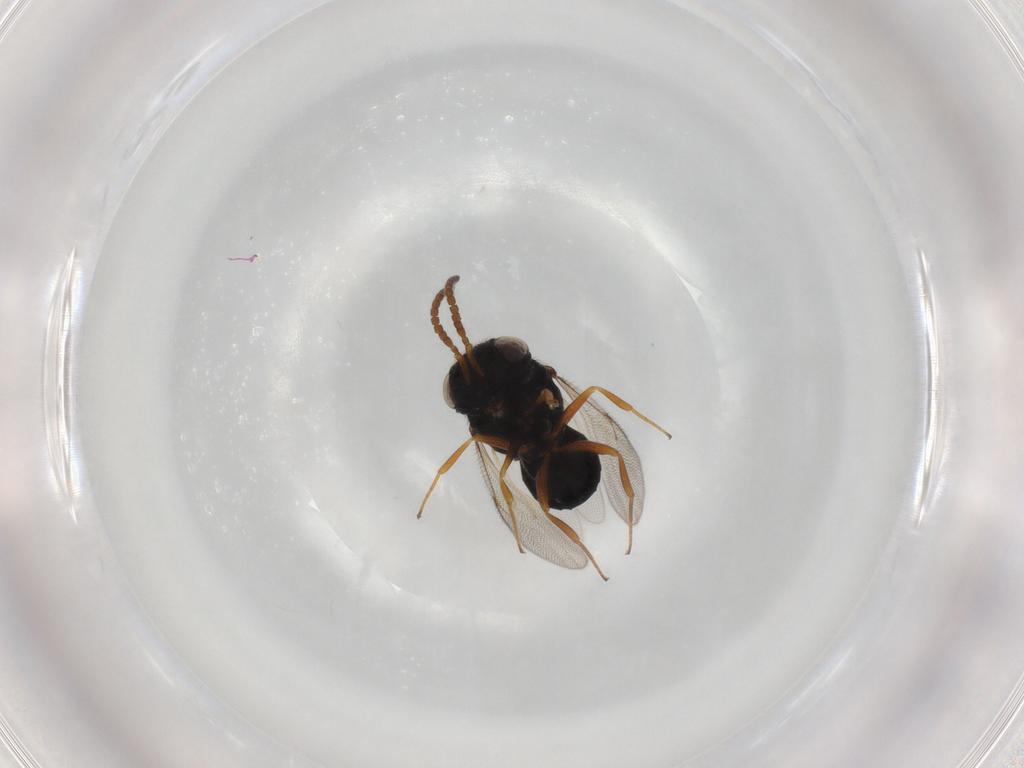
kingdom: Animalia
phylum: Arthropoda
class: Insecta
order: Hymenoptera
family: Scelionidae
